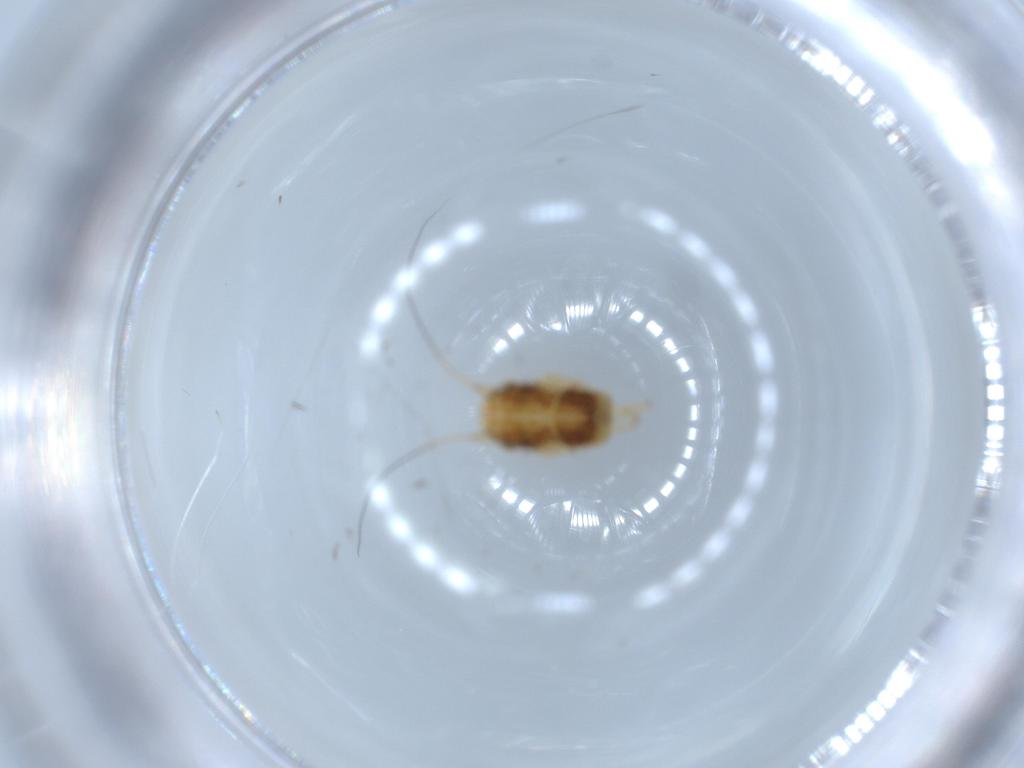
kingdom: Animalia
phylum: Arthropoda
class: Insecta
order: Hemiptera
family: Cicadellidae
